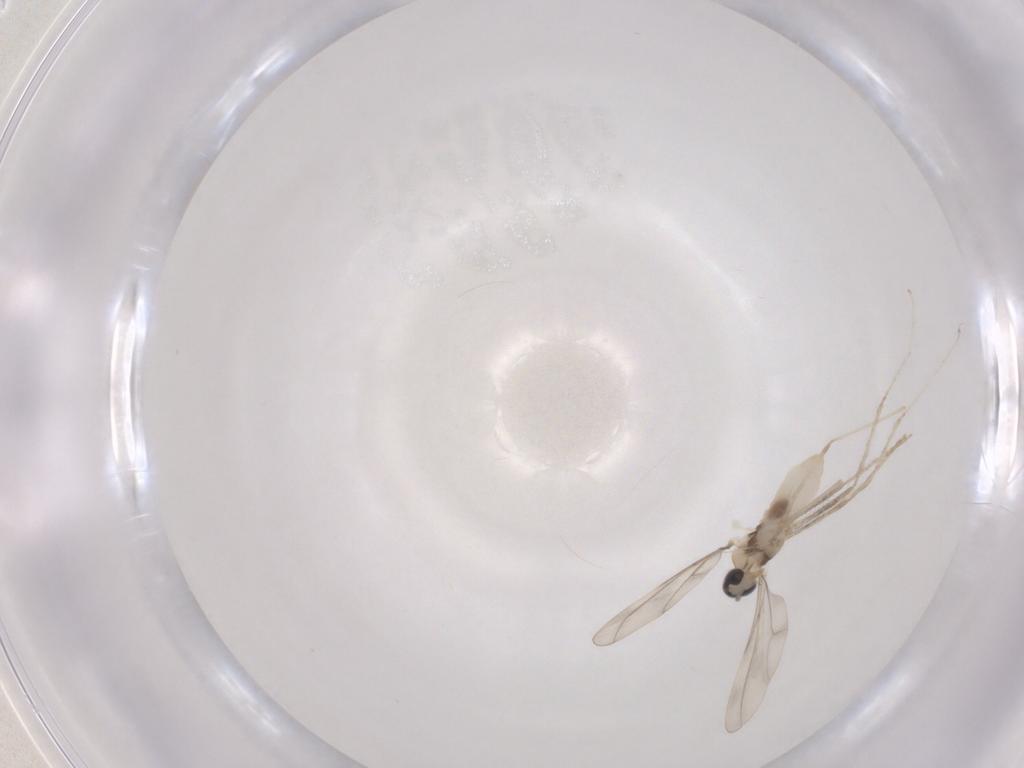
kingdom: Animalia
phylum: Arthropoda
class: Insecta
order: Diptera
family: Cecidomyiidae
